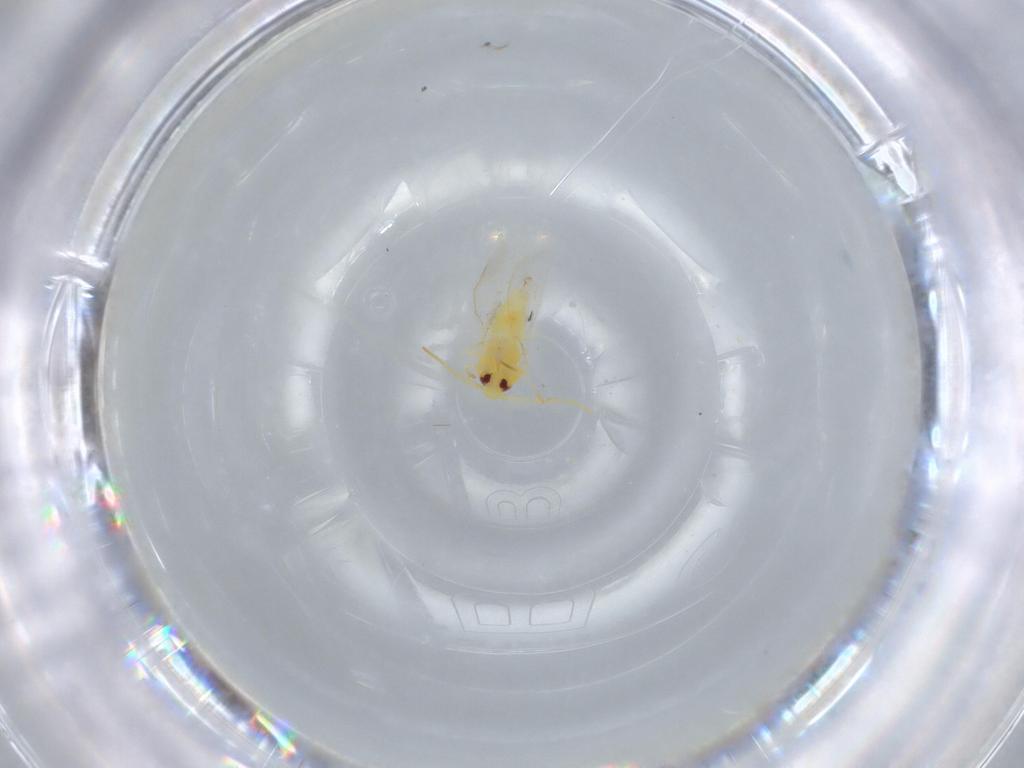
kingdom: Animalia
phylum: Arthropoda
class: Insecta
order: Hemiptera
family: Aleyrodidae
